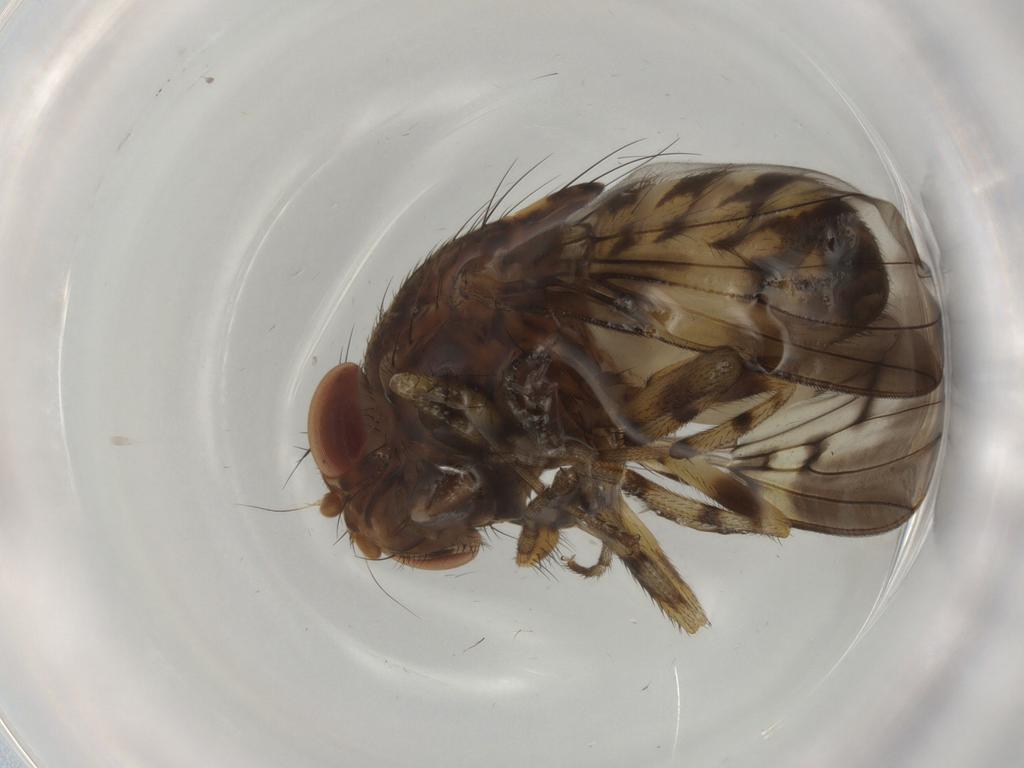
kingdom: Animalia
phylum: Arthropoda
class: Insecta
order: Diptera
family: Drosophilidae
